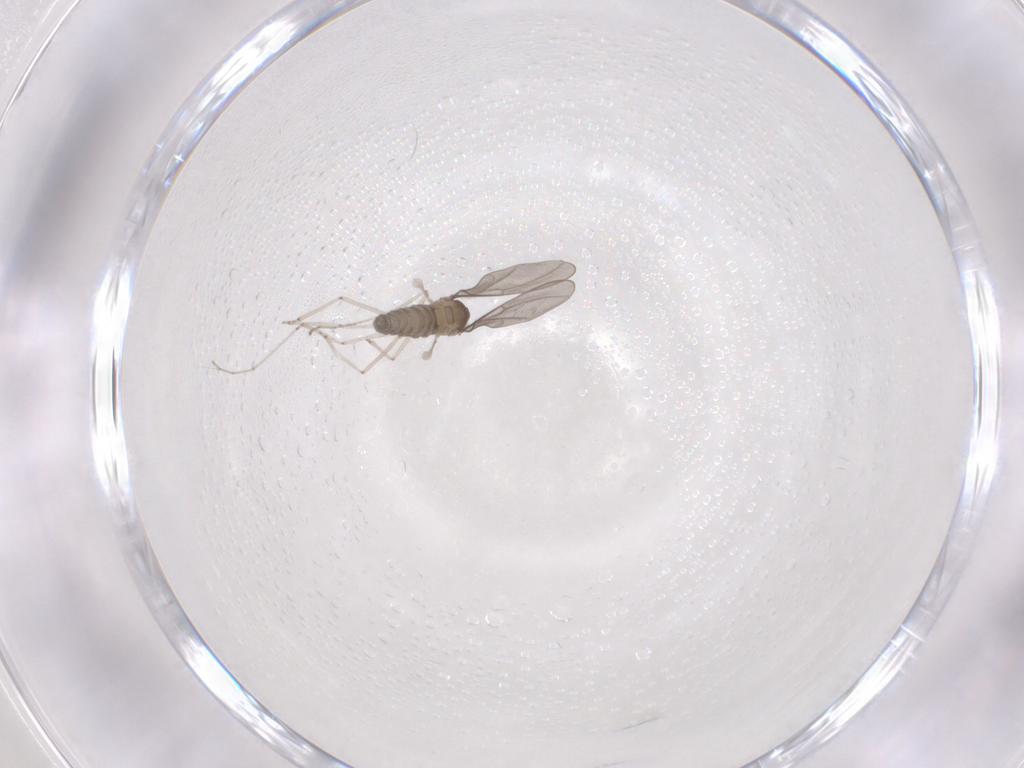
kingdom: Animalia
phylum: Arthropoda
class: Insecta
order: Diptera
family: Cecidomyiidae
